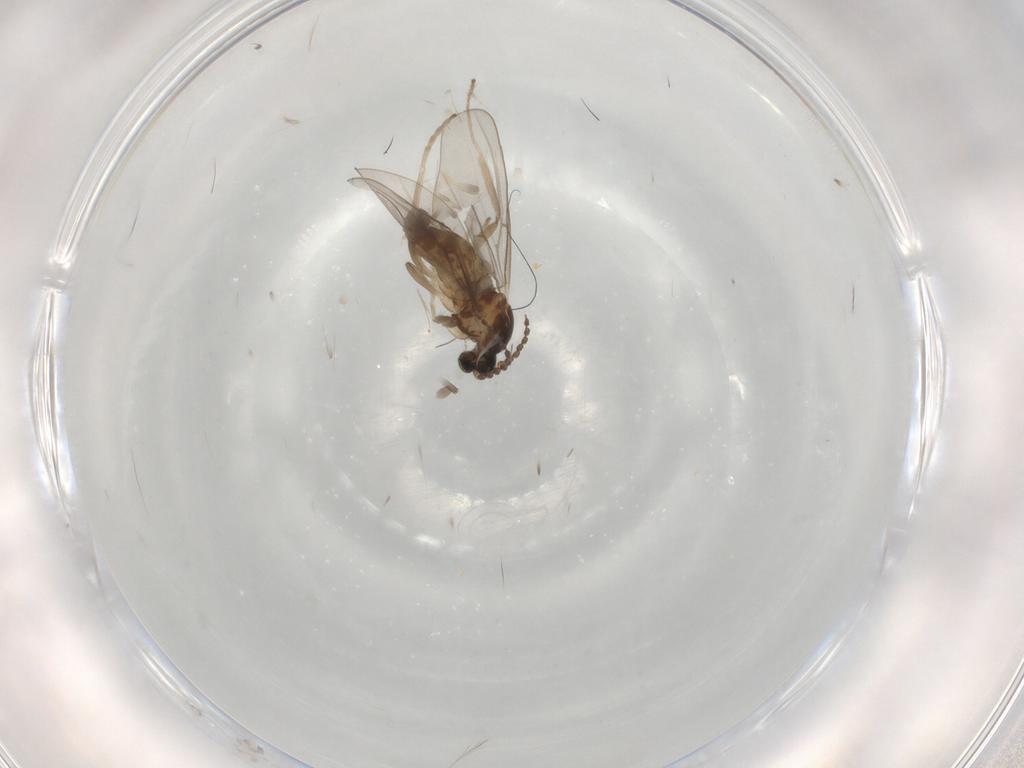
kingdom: Animalia
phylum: Arthropoda
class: Insecta
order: Diptera
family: Cecidomyiidae
